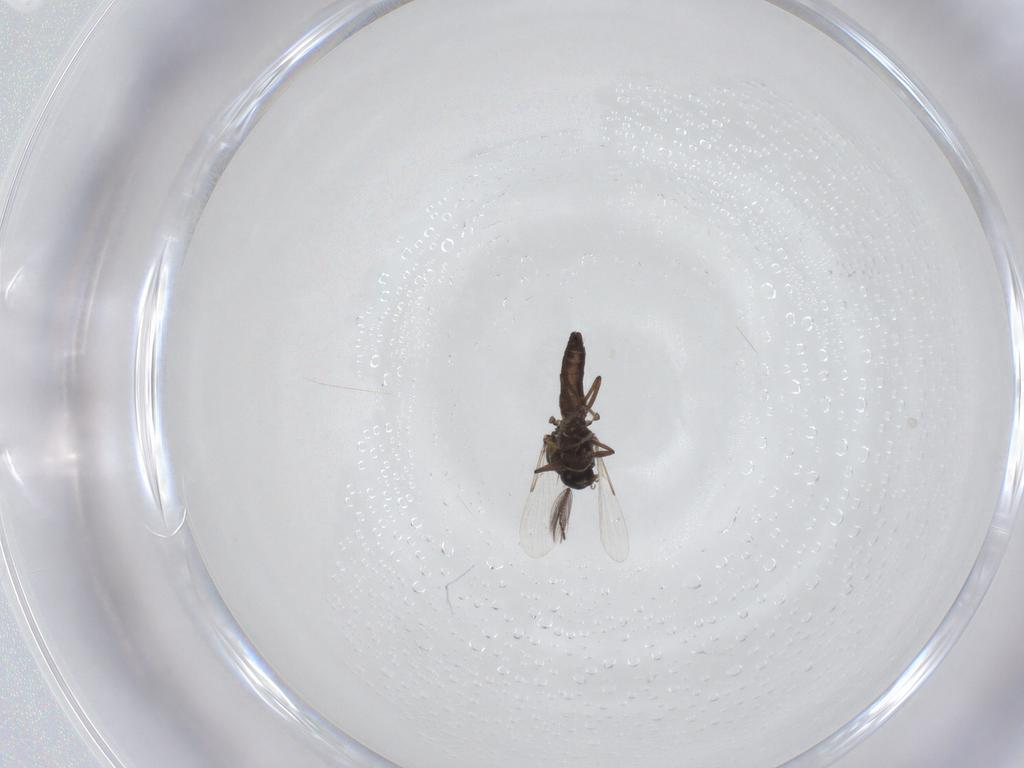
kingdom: Animalia
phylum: Arthropoda
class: Insecta
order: Diptera
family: Ceratopogonidae
